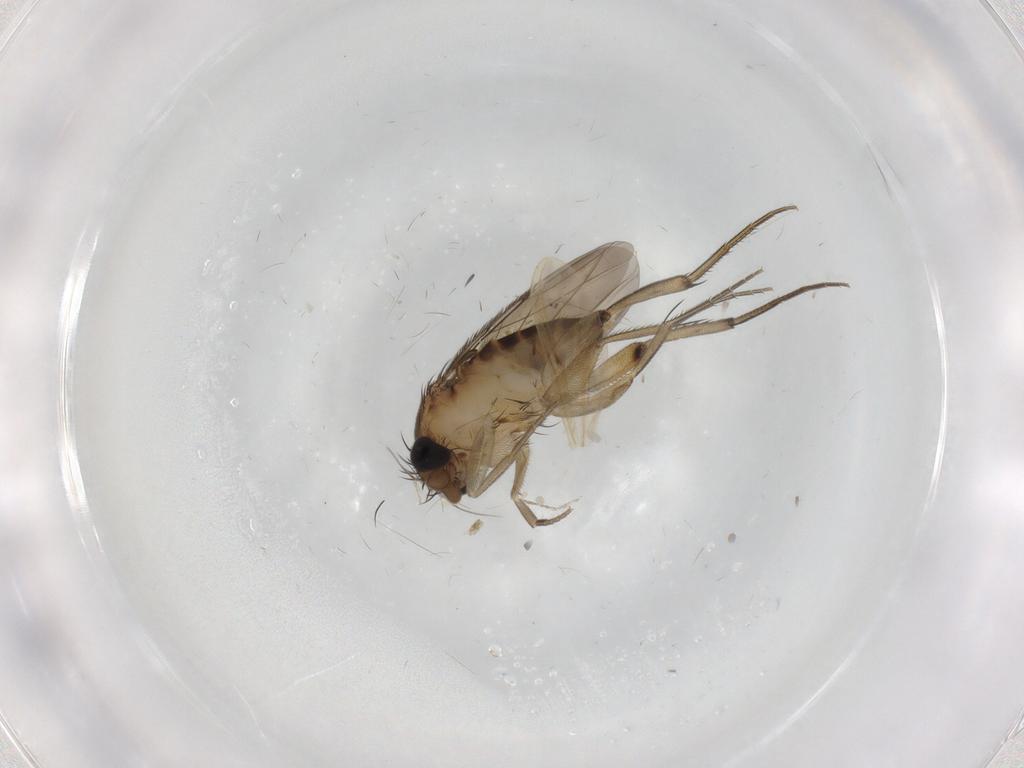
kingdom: Animalia
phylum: Arthropoda
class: Insecta
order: Diptera
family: Phoridae
